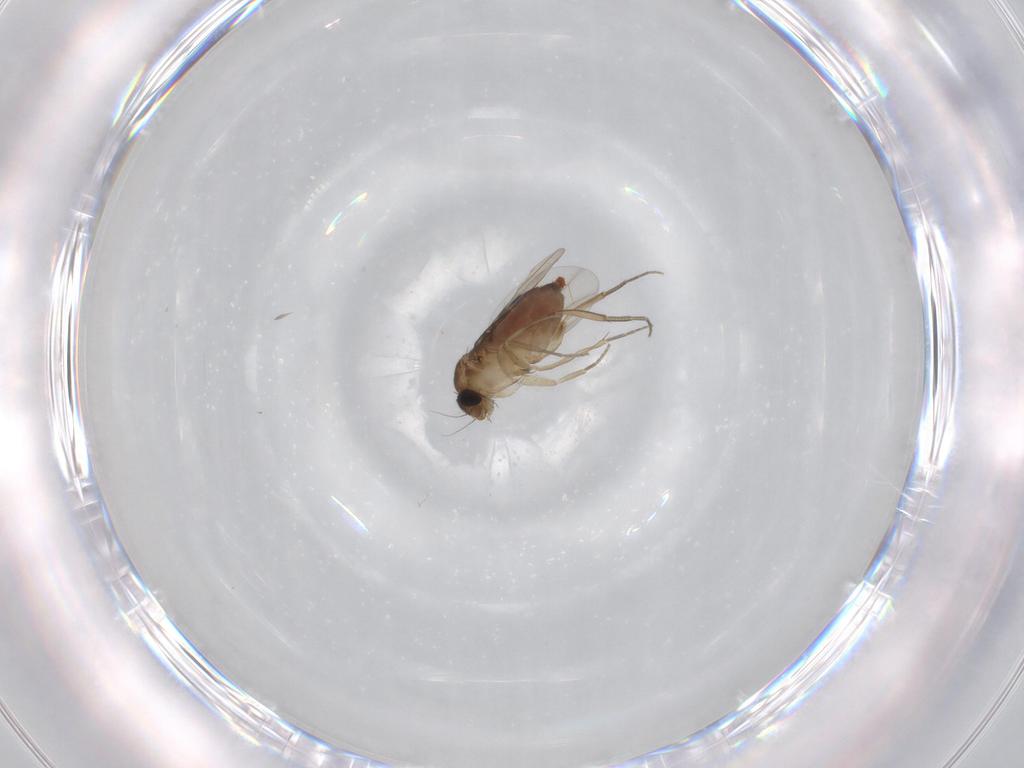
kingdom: Animalia
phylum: Arthropoda
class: Insecta
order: Diptera
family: Phoridae
